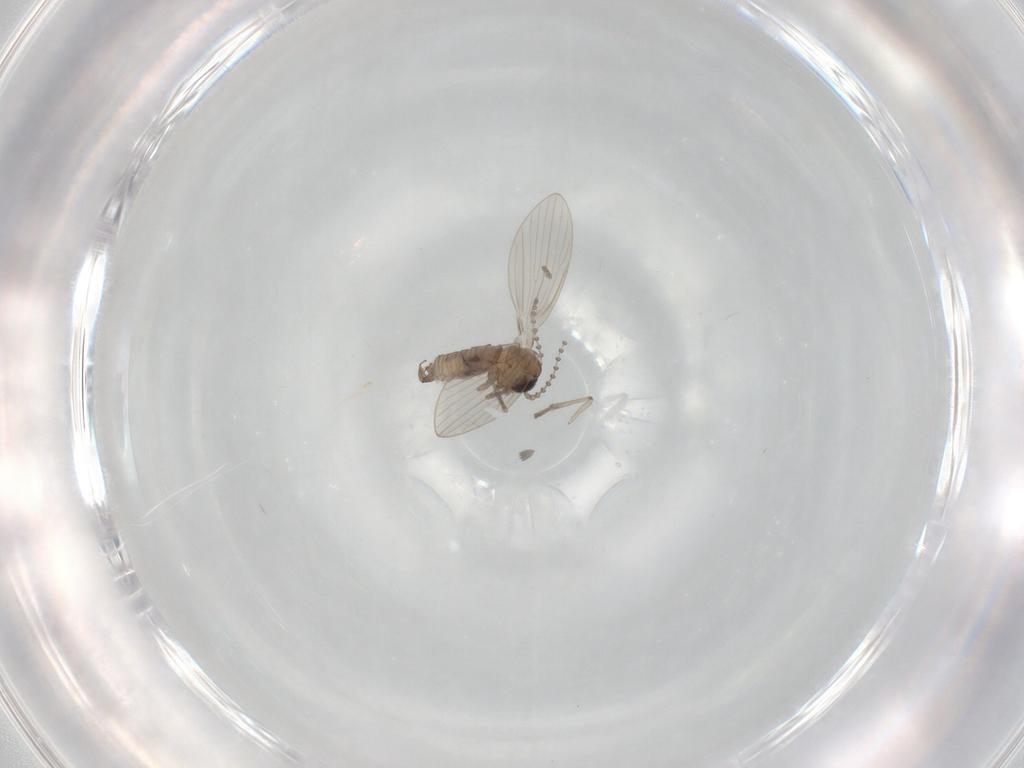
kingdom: Animalia
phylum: Arthropoda
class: Insecta
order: Diptera
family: Psychodidae
